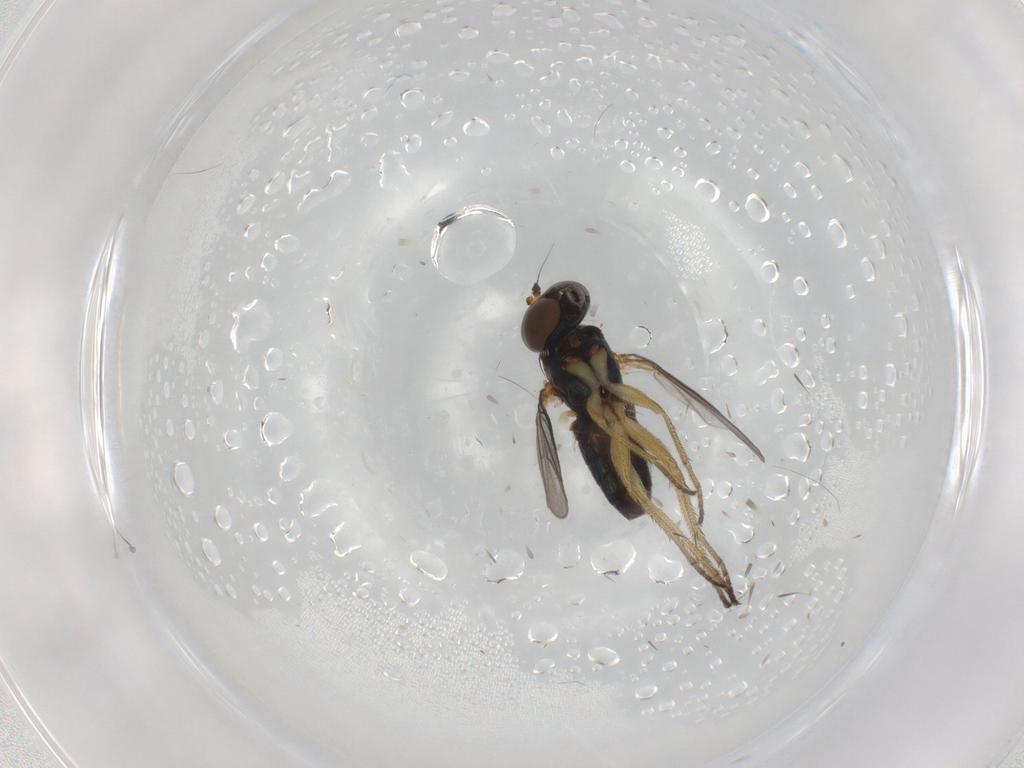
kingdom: Animalia
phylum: Arthropoda
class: Insecta
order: Diptera
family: Dolichopodidae
